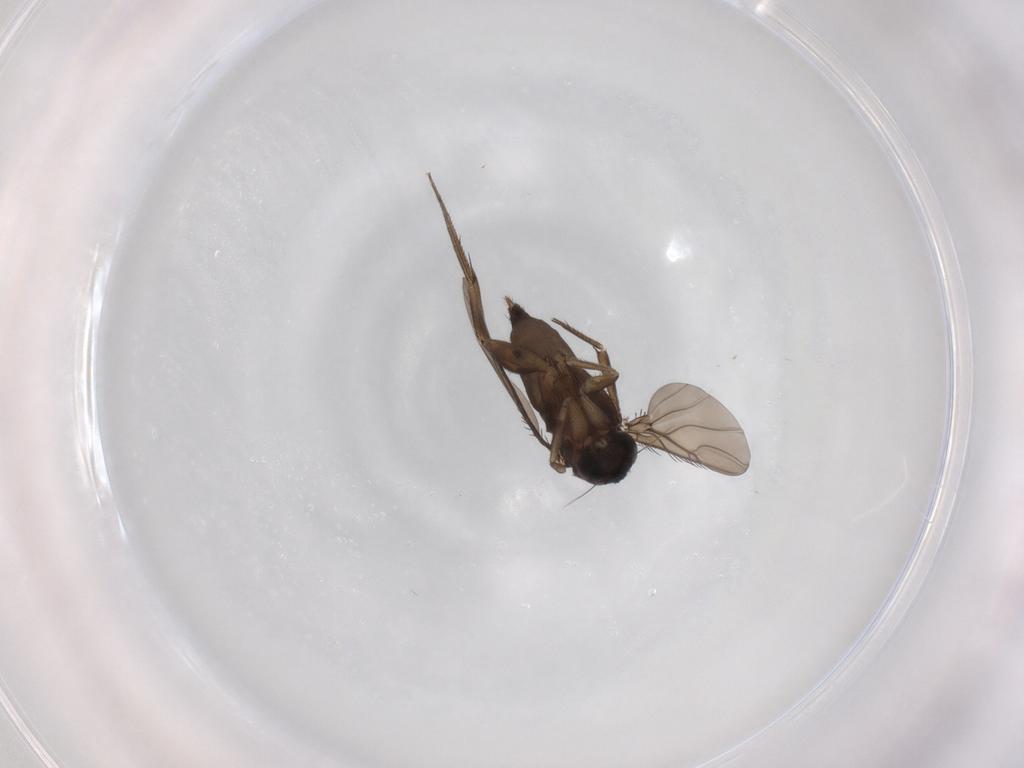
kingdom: Animalia
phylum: Arthropoda
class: Insecta
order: Diptera
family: Phoridae
